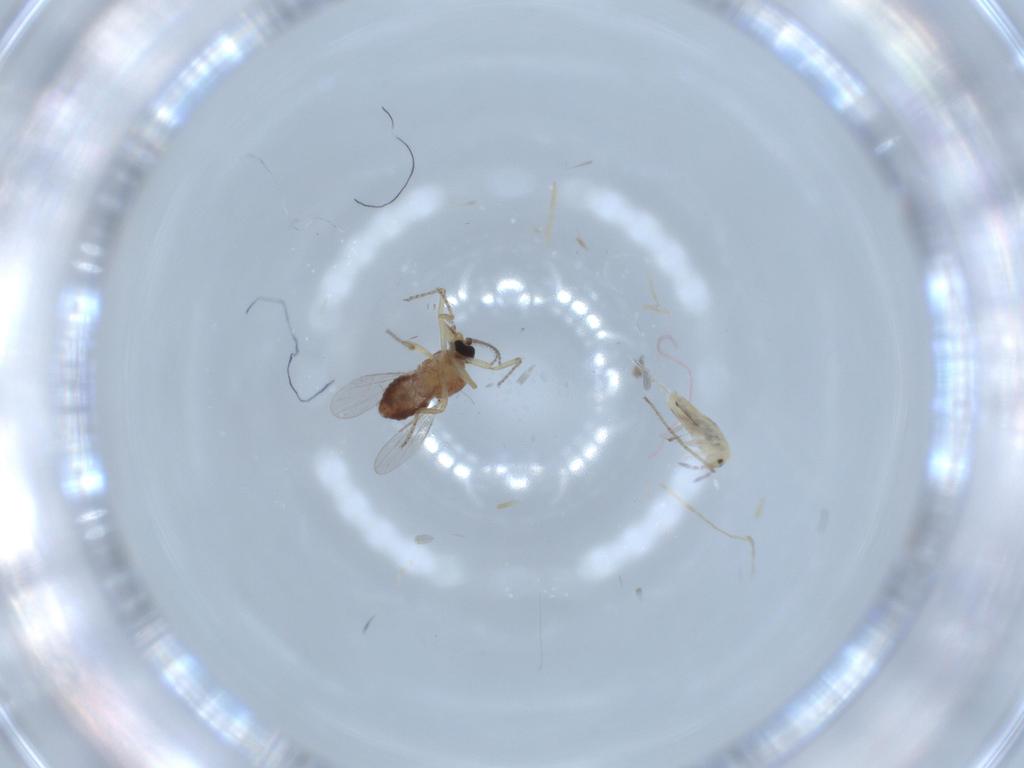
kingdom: Animalia
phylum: Arthropoda
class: Insecta
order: Diptera
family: Ceratopogonidae
